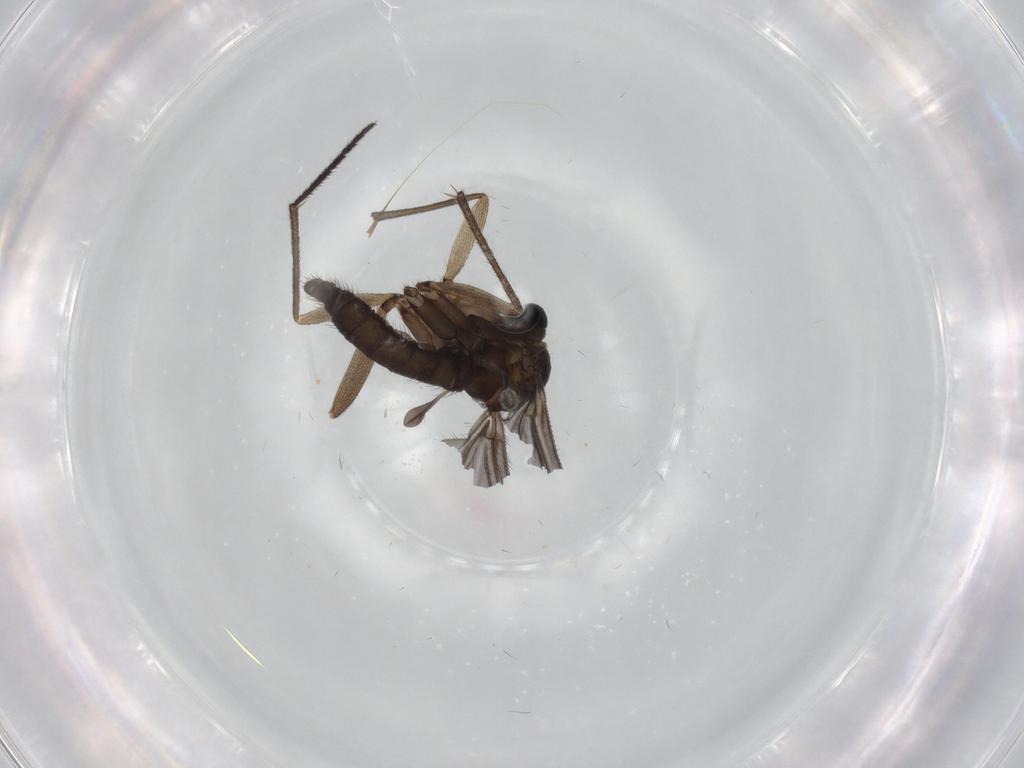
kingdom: Animalia
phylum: Arthropoda
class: Insecta
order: Diptera
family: Sciaridae
